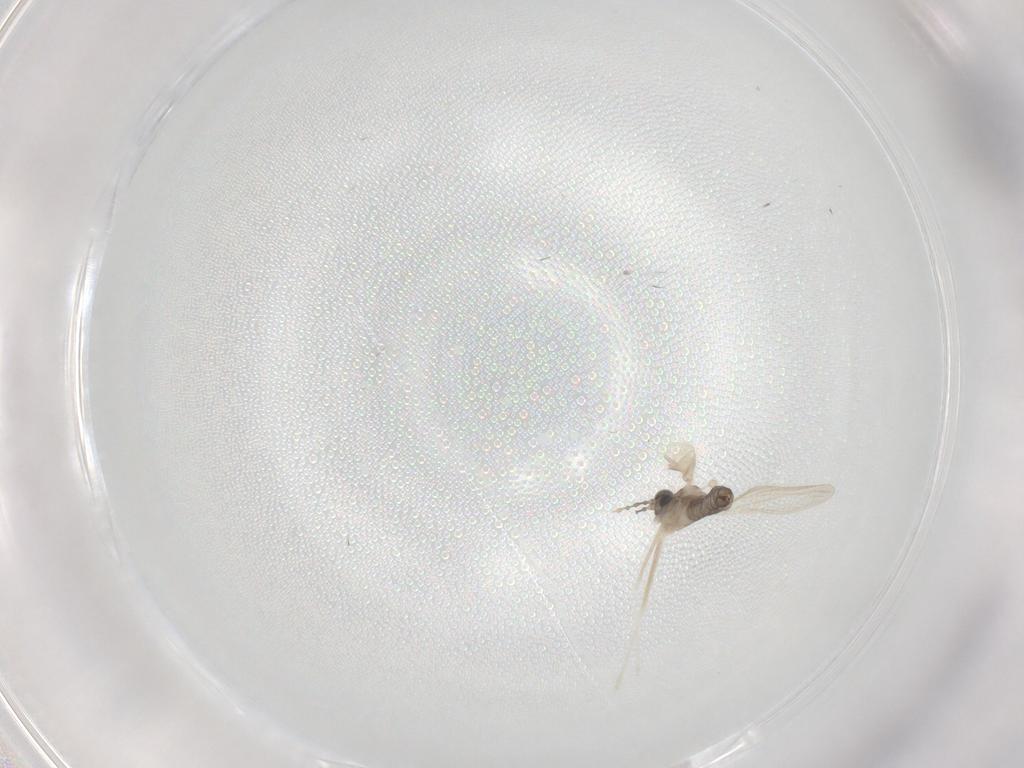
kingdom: Animalia
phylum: Arthropoda
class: Insecta
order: Diptera
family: Cecidomyiidae
